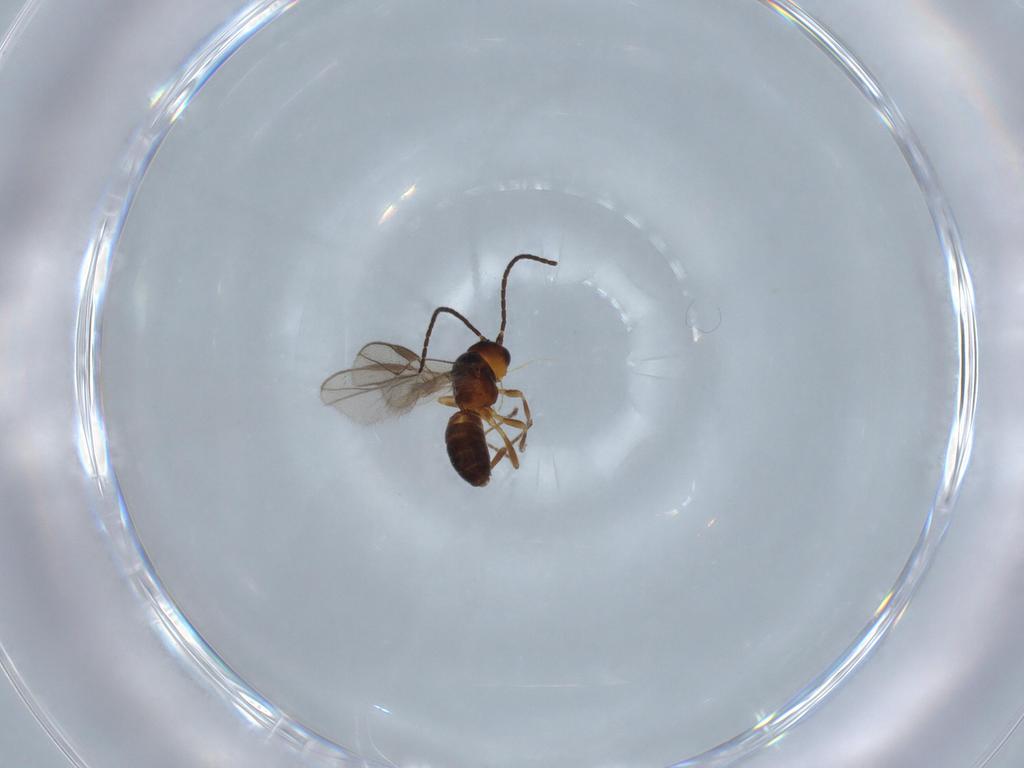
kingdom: Animalia
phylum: Arthropoda
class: Insecta
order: Hymenoptera
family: Braconidae
